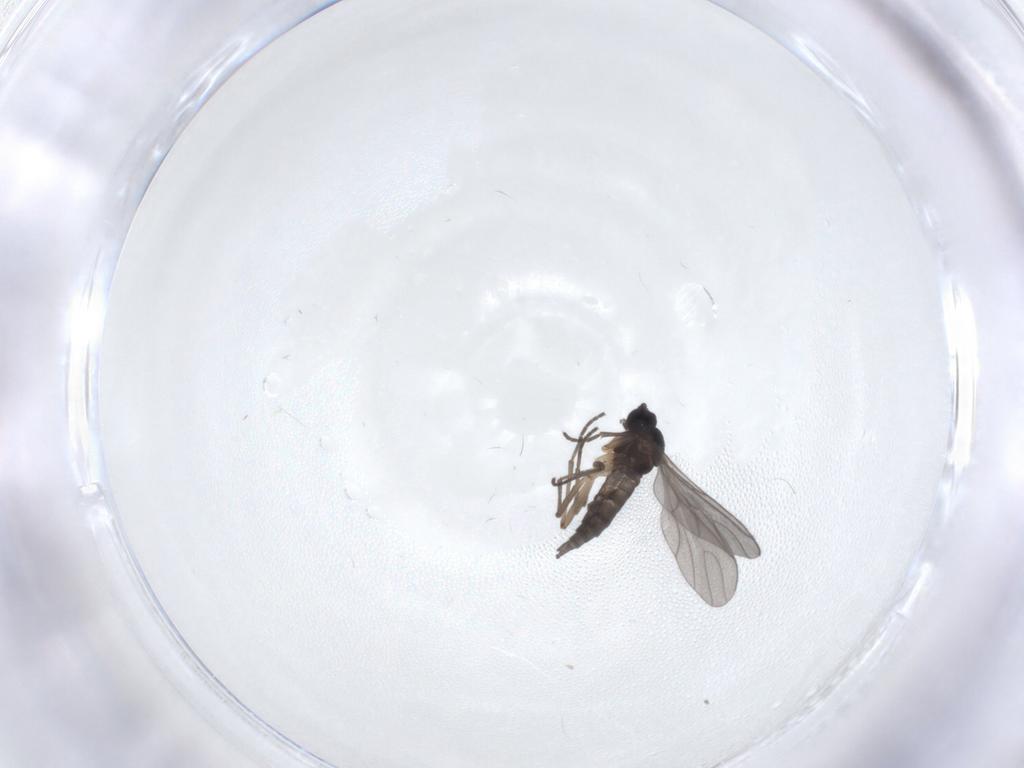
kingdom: Animalia
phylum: Arthropoda
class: Insecta
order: Diptera
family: Sciaridae
